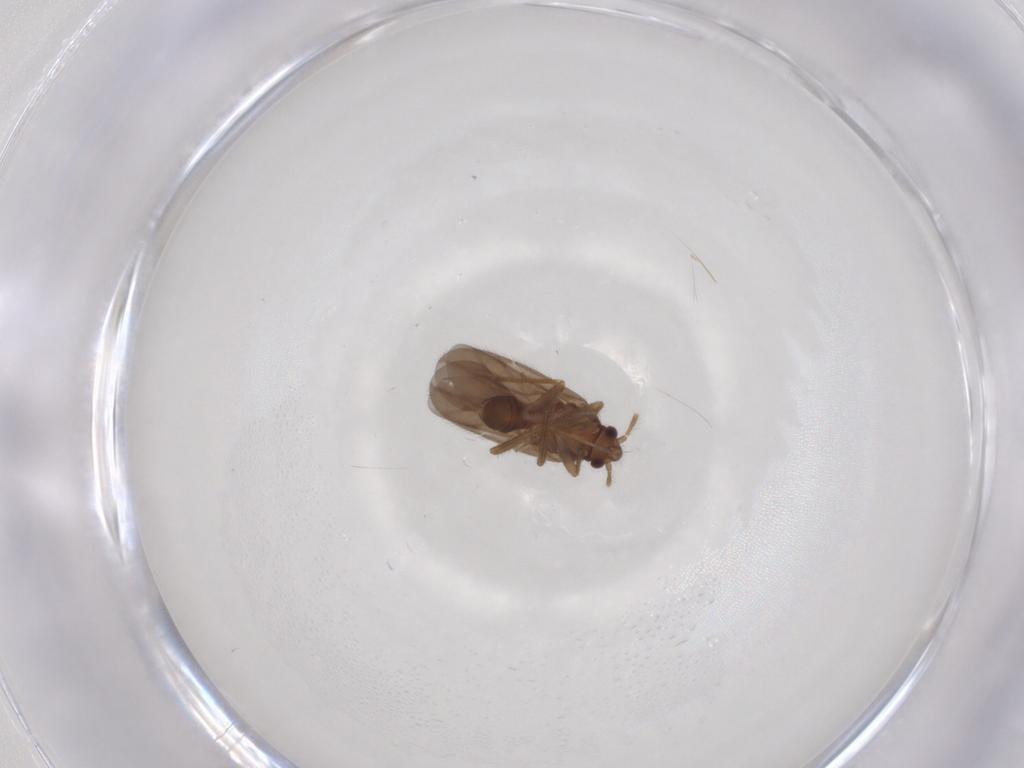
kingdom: Animalia
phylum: Arthropoda
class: Insecta
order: Hemiptera
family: Ceratocombidae
